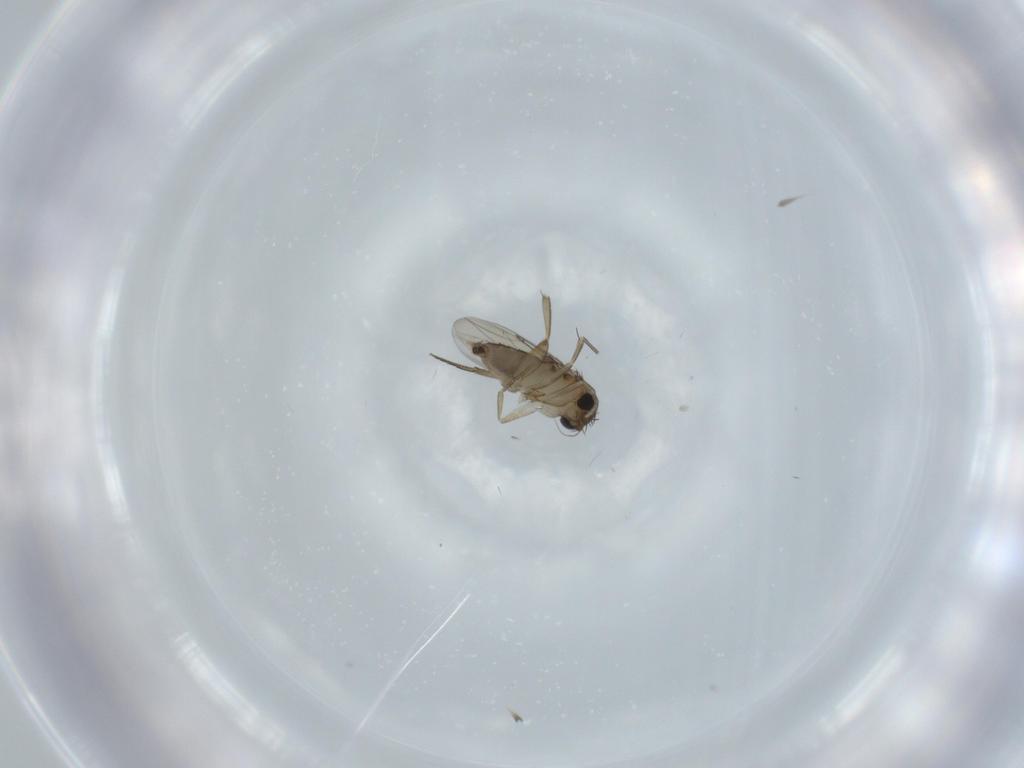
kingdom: Animalia
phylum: Arthropoda
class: Insecta
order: Diptera
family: Phoridae
